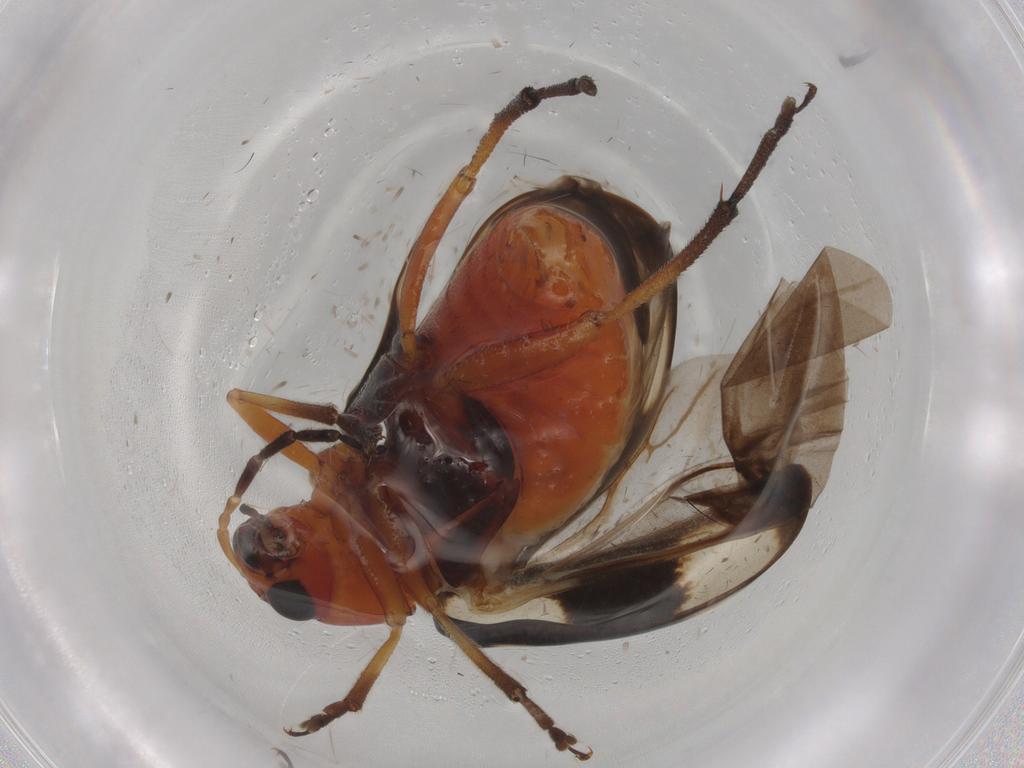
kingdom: Animalia
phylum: Arthropoda
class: Insecta
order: Coleoptera
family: Chrysomelidae
